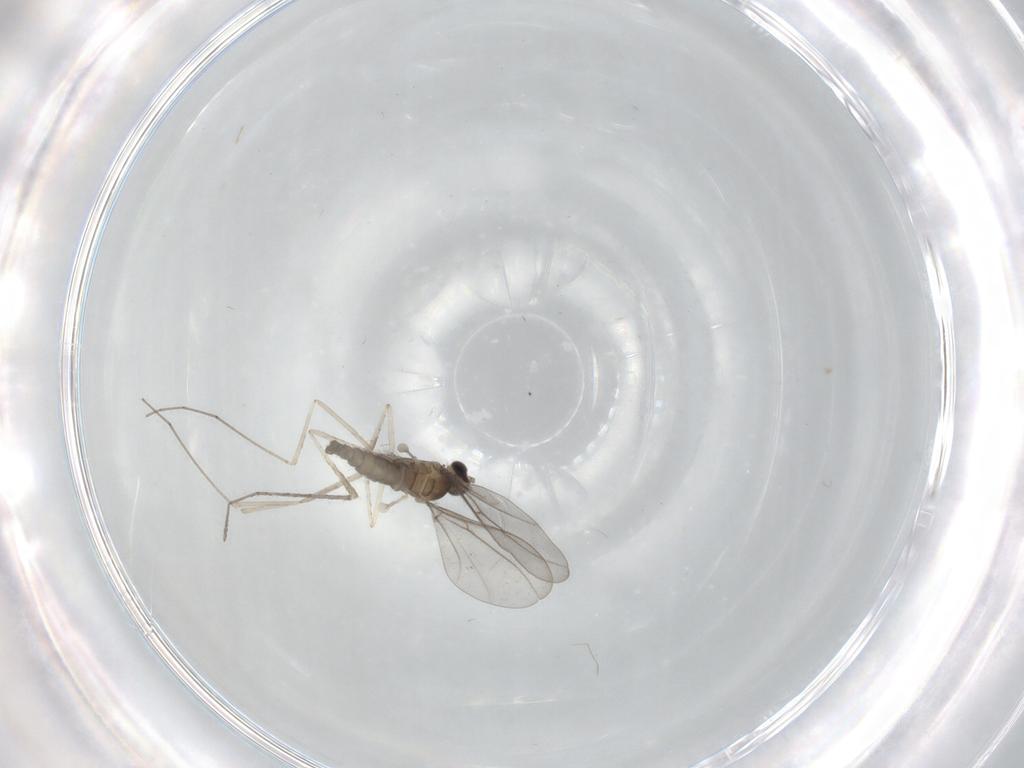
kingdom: Animalia
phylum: Arthropoda
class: Insecta
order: Diptera
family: Cecidomyiidae
